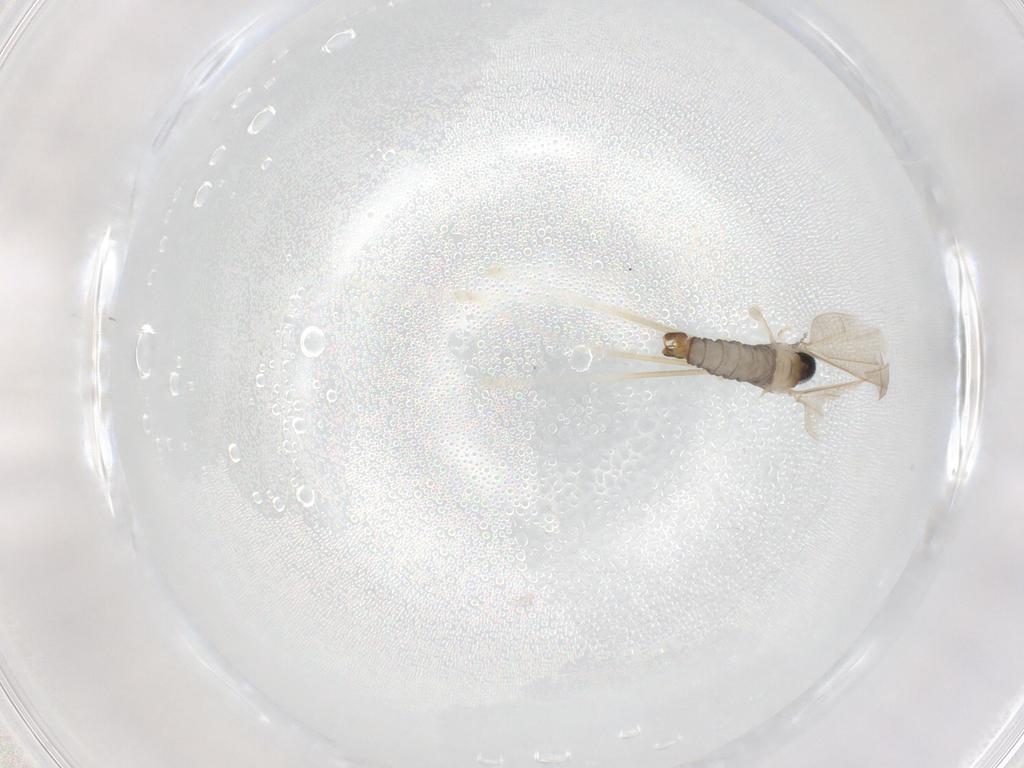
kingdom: Animalia
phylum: Arthropoda
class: Insecta
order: Diptera
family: Cecidomyiidae
